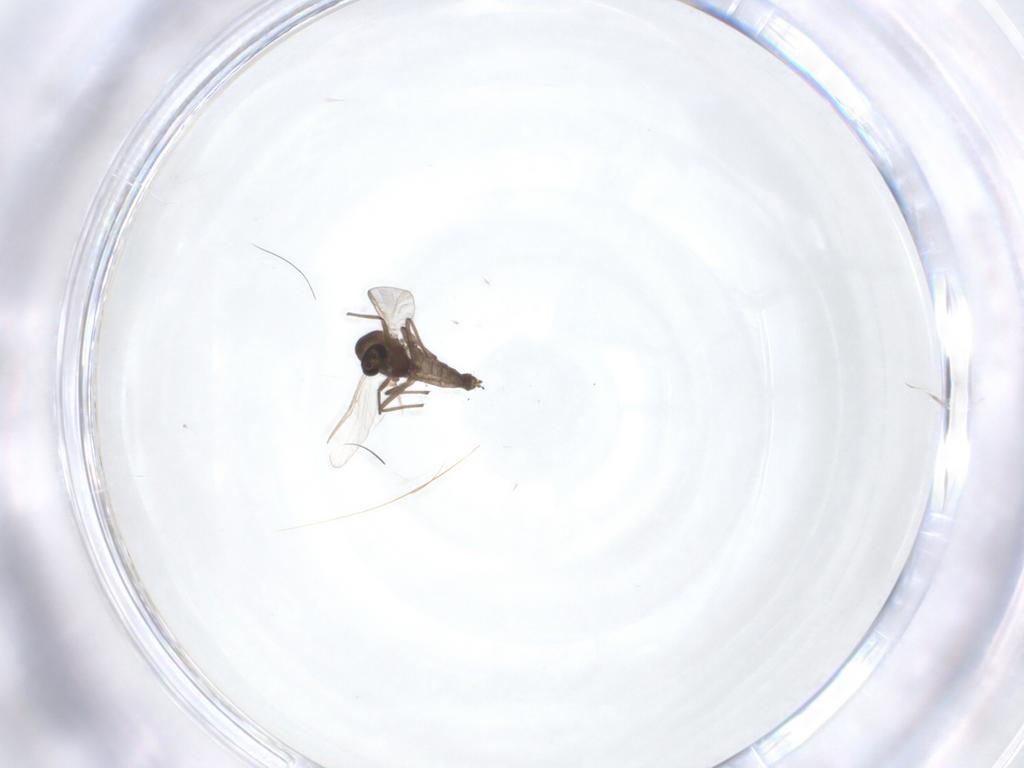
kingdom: Animalia
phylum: Arthropoda
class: Insecta
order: Diptera
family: Chironomidae
